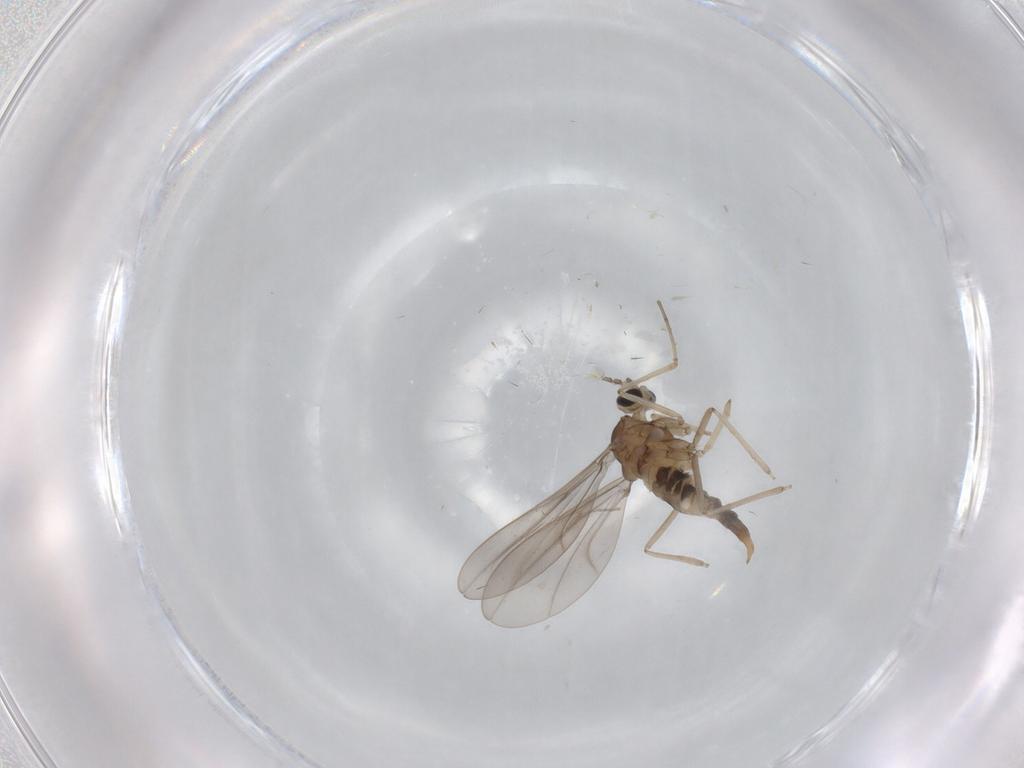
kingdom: Animalia
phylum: Arthropoda
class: Insecta
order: Diptera
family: Cecidomyiidae
